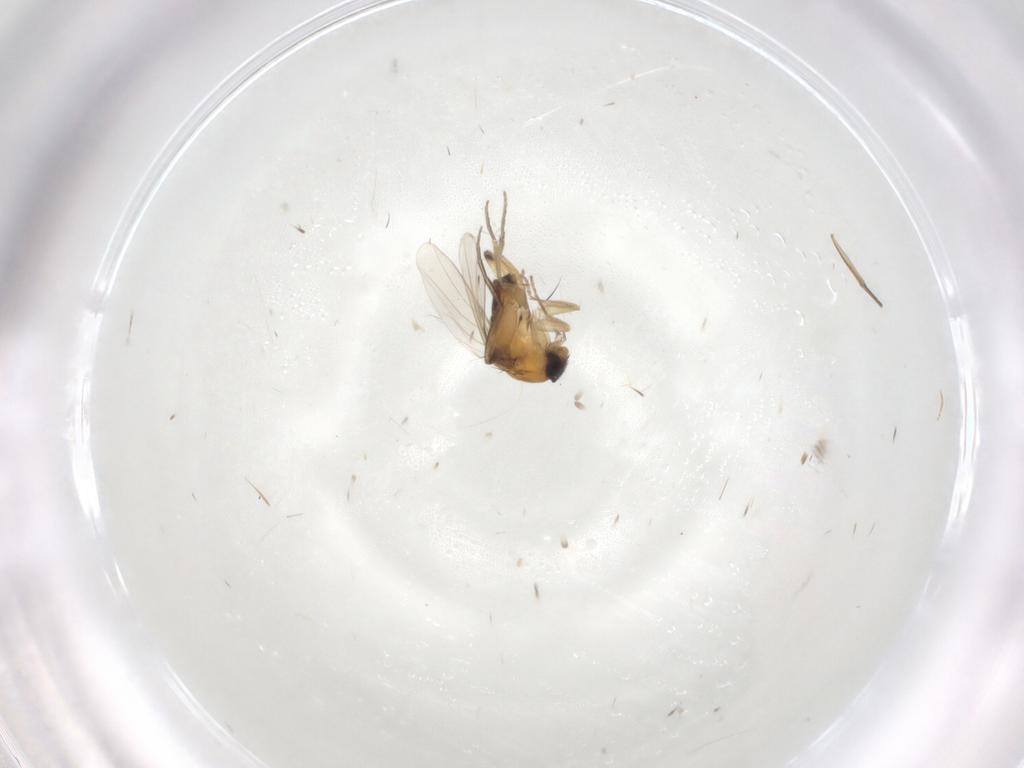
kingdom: Animalia
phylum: Arthropoda
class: Insecta
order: Diptera
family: Phoridae
